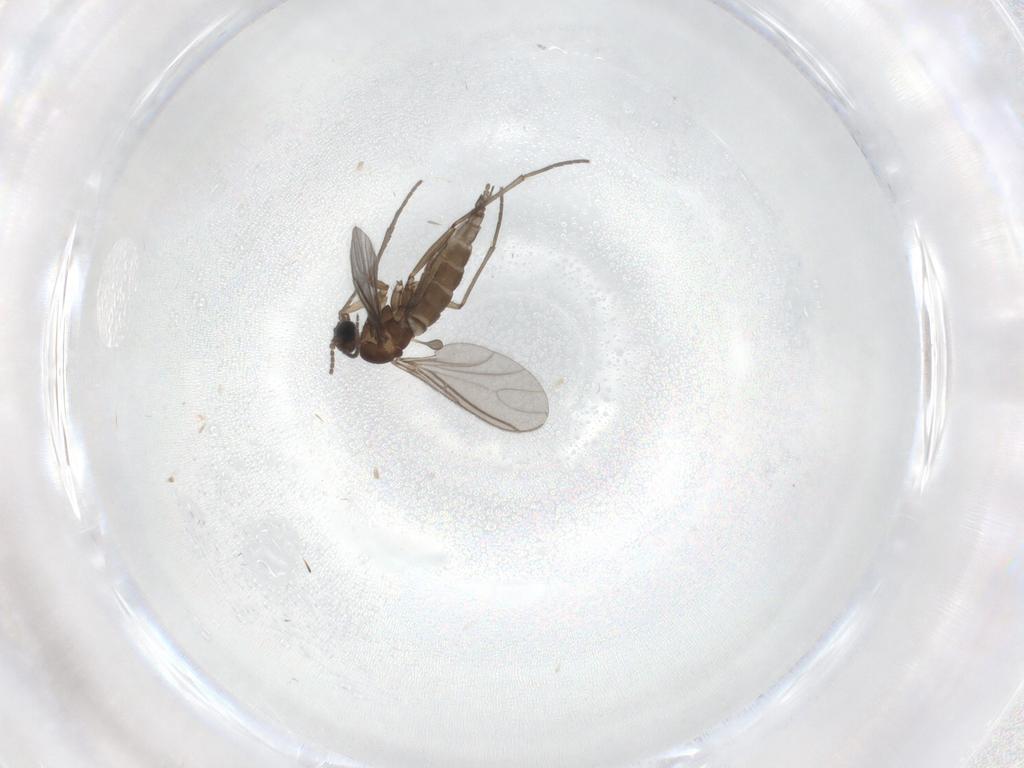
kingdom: Animalia
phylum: Arthropoda
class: Insecta
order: Diptera
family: Sciaridae
